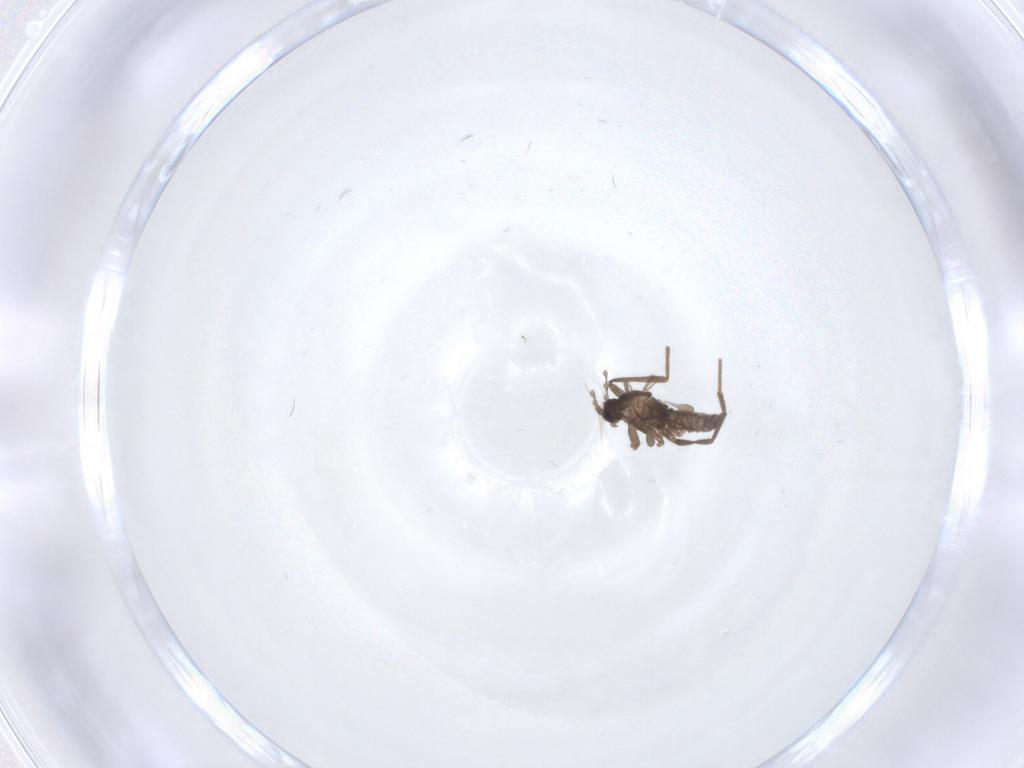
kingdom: Animalia
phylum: Arthropoda
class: Insecta
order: Diptera
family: Cecidomyiidae
